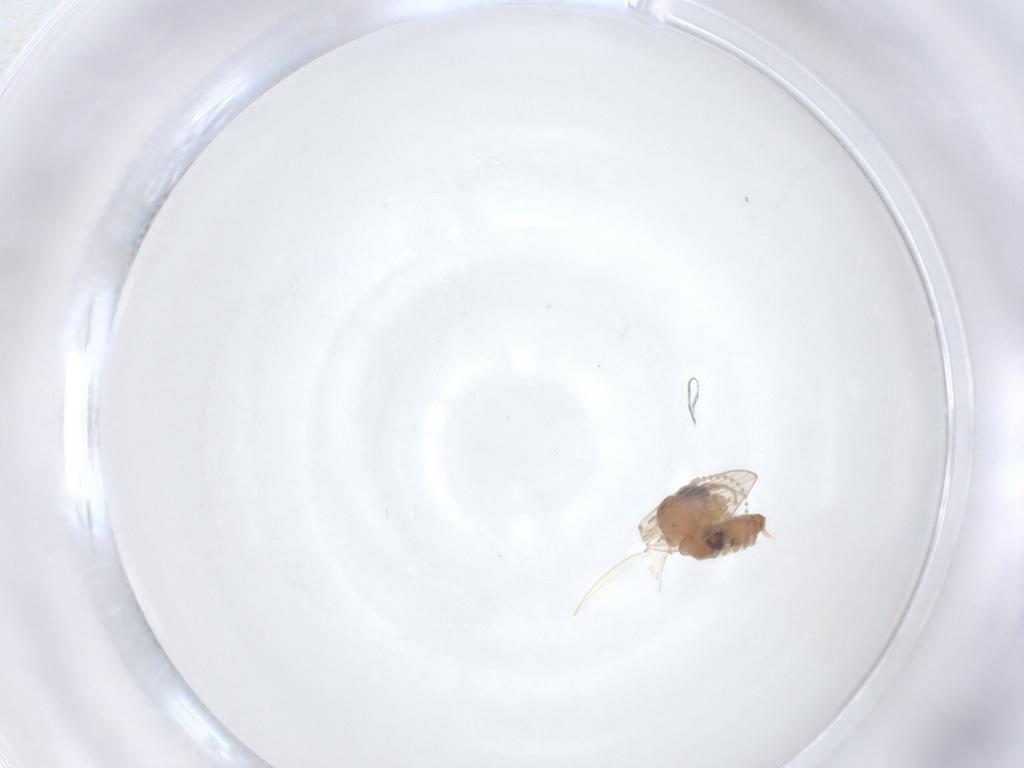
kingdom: Animalia
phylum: Arthropoda
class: Insecta
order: Diptera
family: Psychodidae
